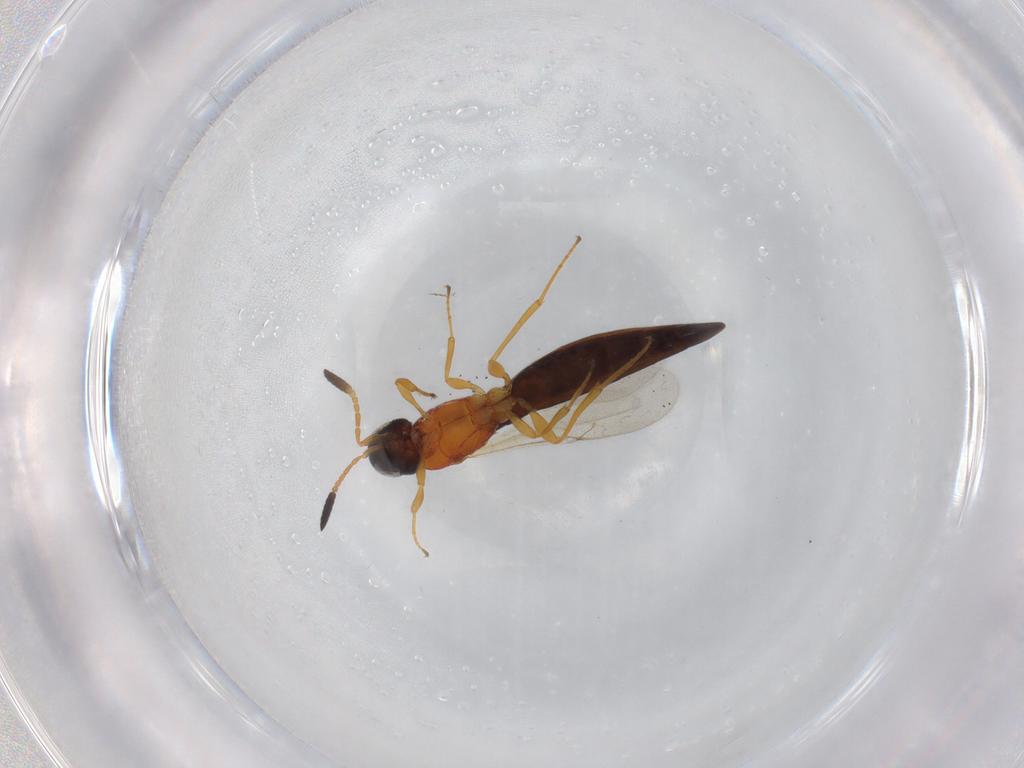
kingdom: Animalia
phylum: Arthropoda
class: Insecta
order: Hymenoptera
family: Scelionidae
